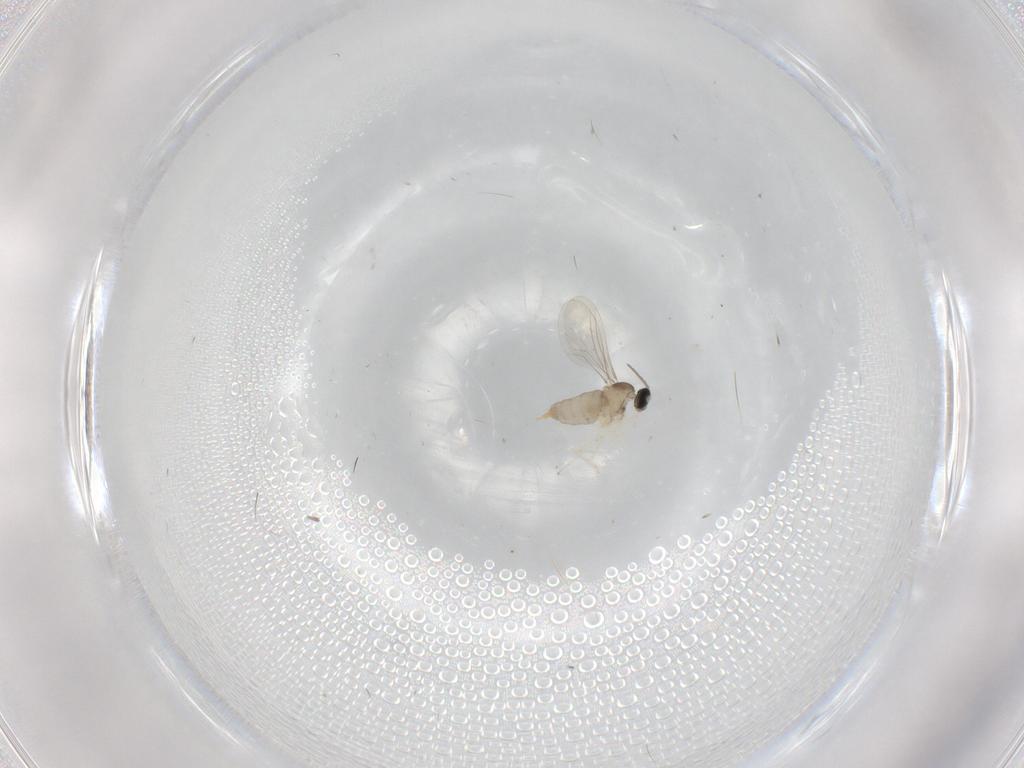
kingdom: Animalia
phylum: Arthropoda
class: Insecta
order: Diptera
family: Cecidomyiidae
